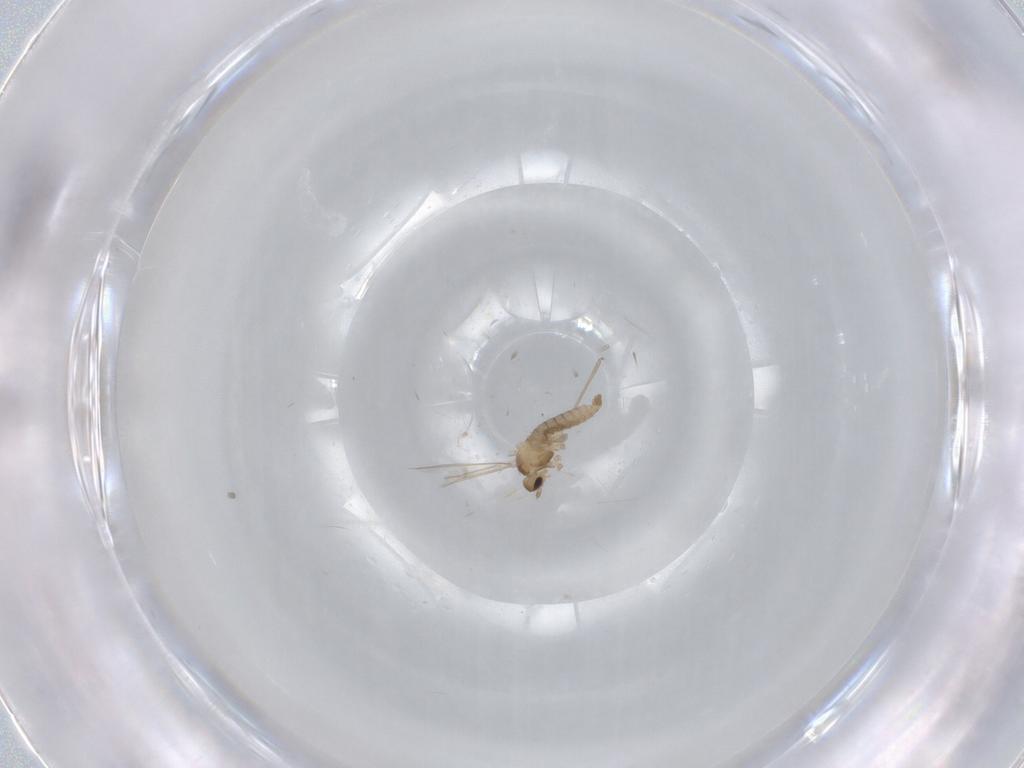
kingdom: Animalia
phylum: Arthropoda
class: Insecta
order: Diptera
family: Cecidomyiidae
